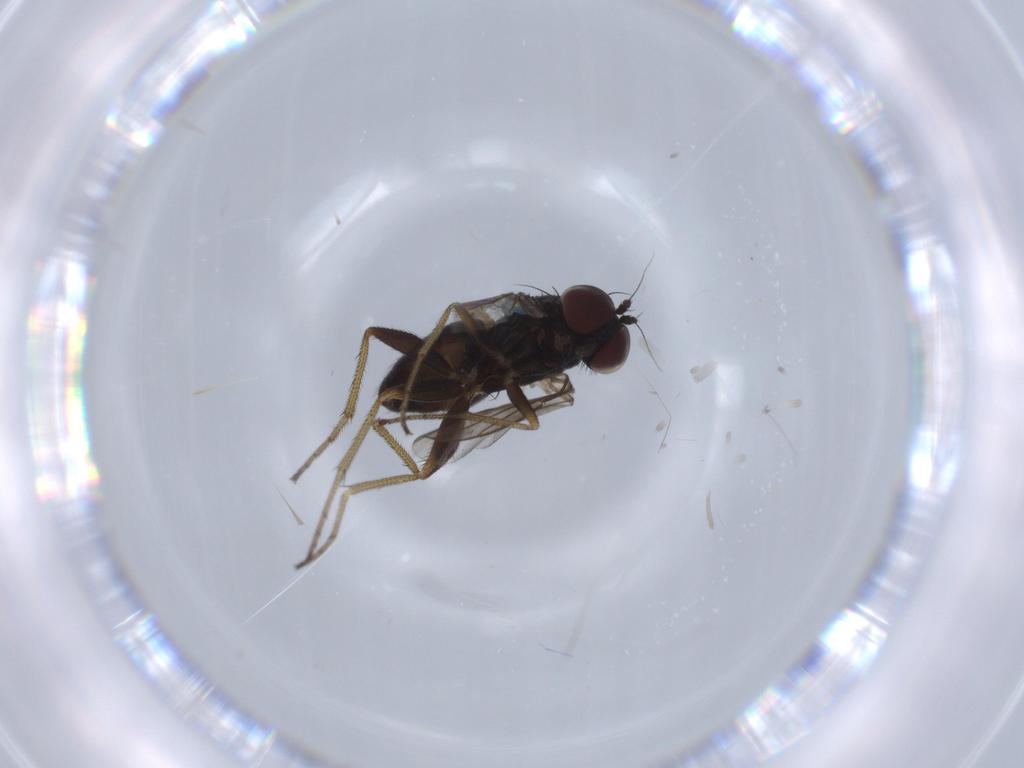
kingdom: Animalia
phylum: Arthropoda
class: Insecta
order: Diptera
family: Dolichopodidae
